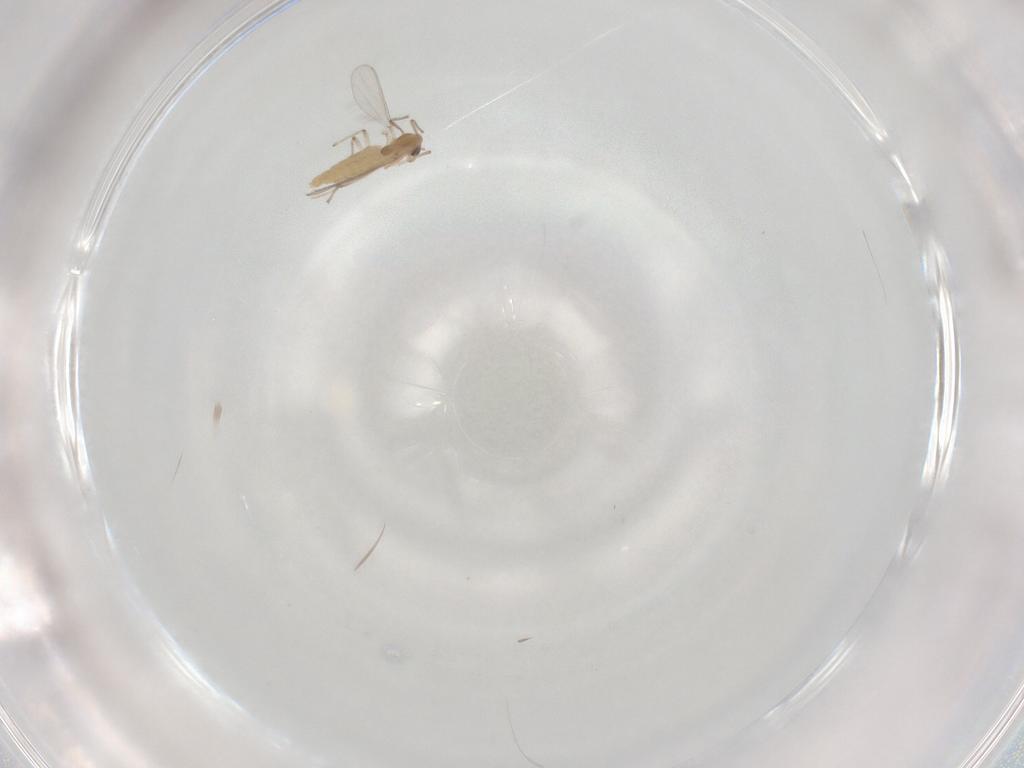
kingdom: Animalia
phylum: Arthropoda
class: Insecta
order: Diptera
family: Chironomidae
